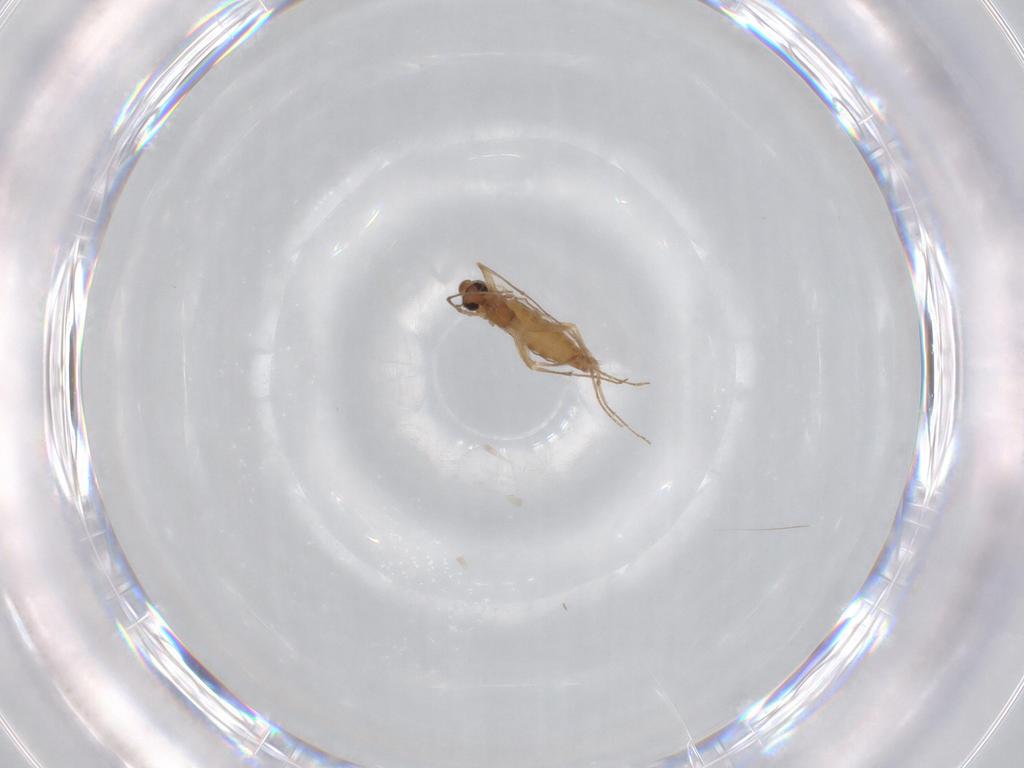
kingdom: Animalia
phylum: Arthropoda
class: Insecta
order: Diptera
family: Chironomidae
